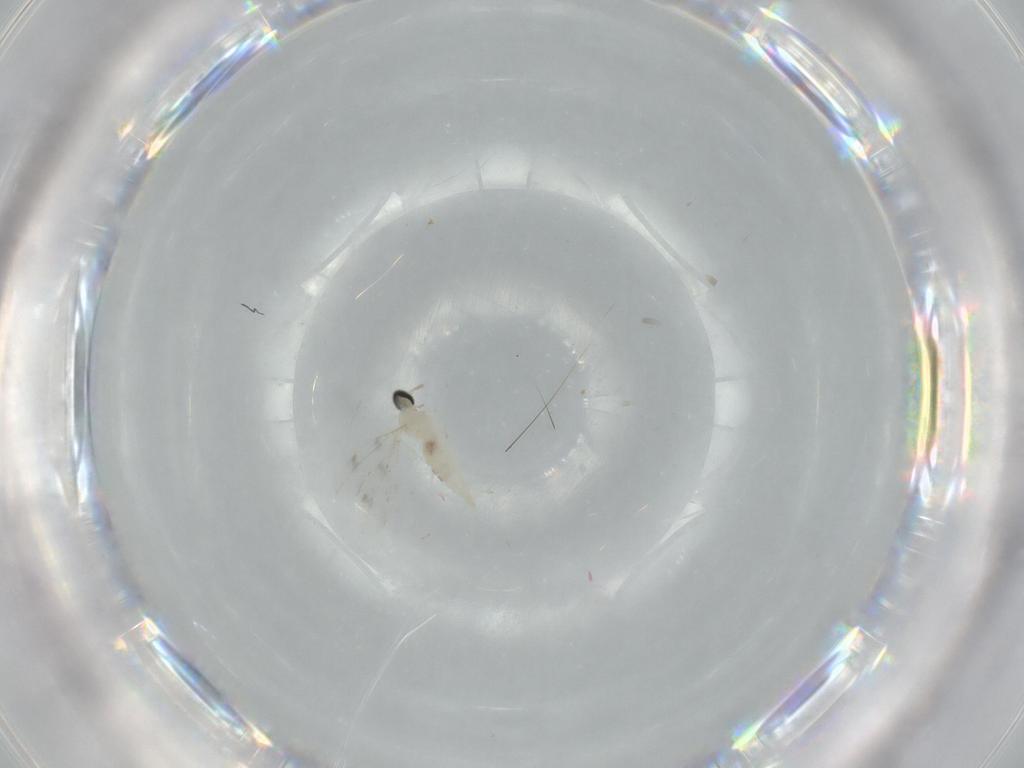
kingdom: Animalia
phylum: Arthropoda
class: Insecta
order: Diptera
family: Cecidomyiidae
